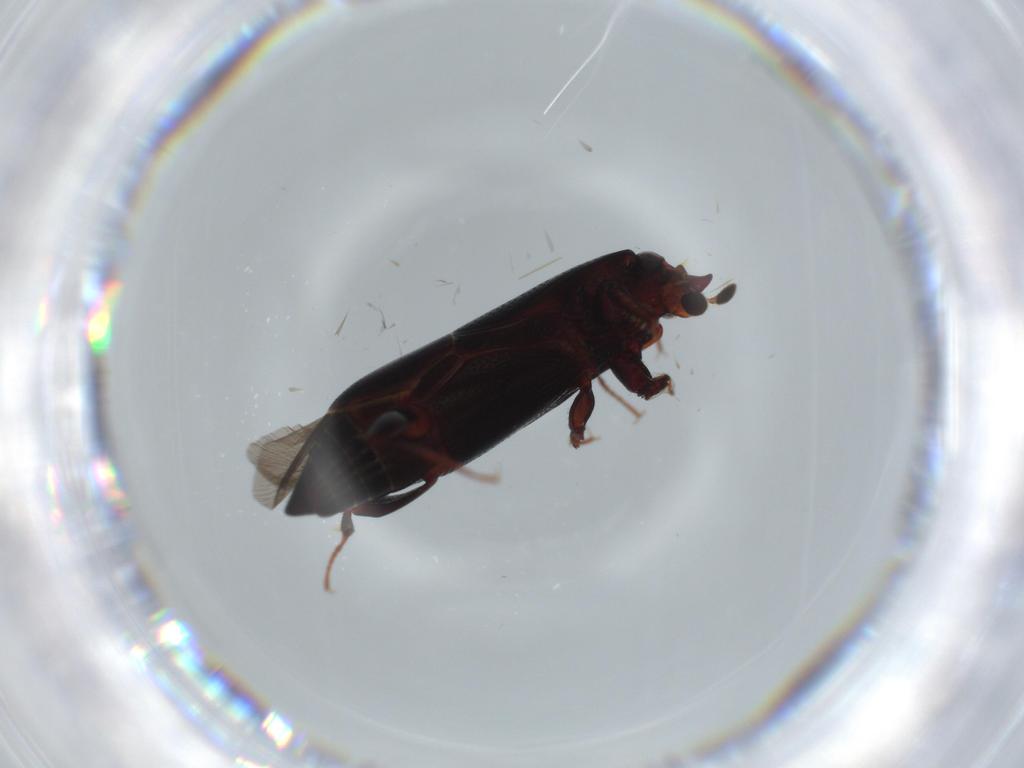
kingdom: Animalia
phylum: Arthropoda
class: Insecta
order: Coleoptera
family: Histeridae
